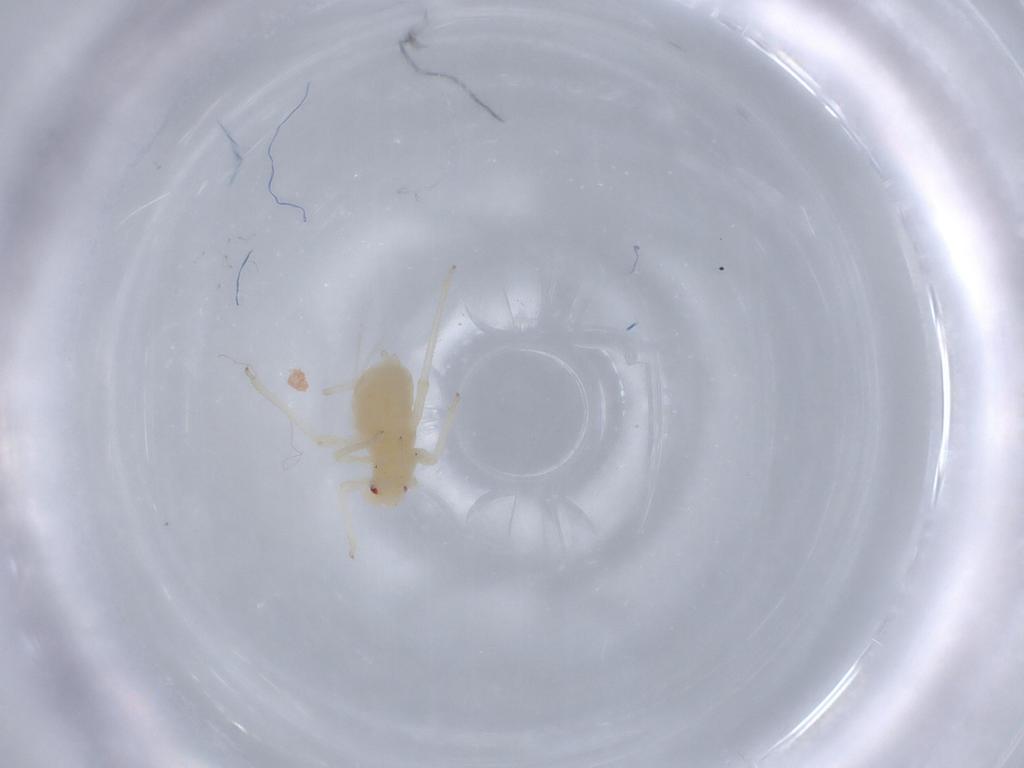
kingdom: Animalia
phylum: Arthropoda
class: Insecta
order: Hemiptera
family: Aphididae
